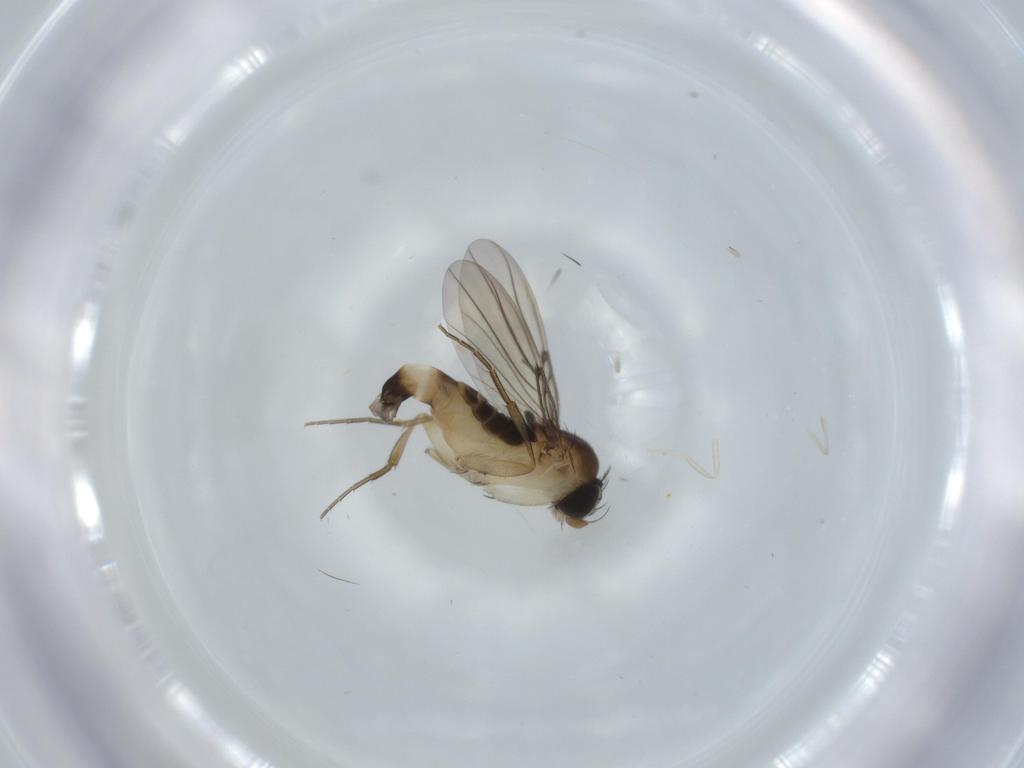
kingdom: Animalia
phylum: Arthropoda
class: Insecta
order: Diptera
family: Phoridae
